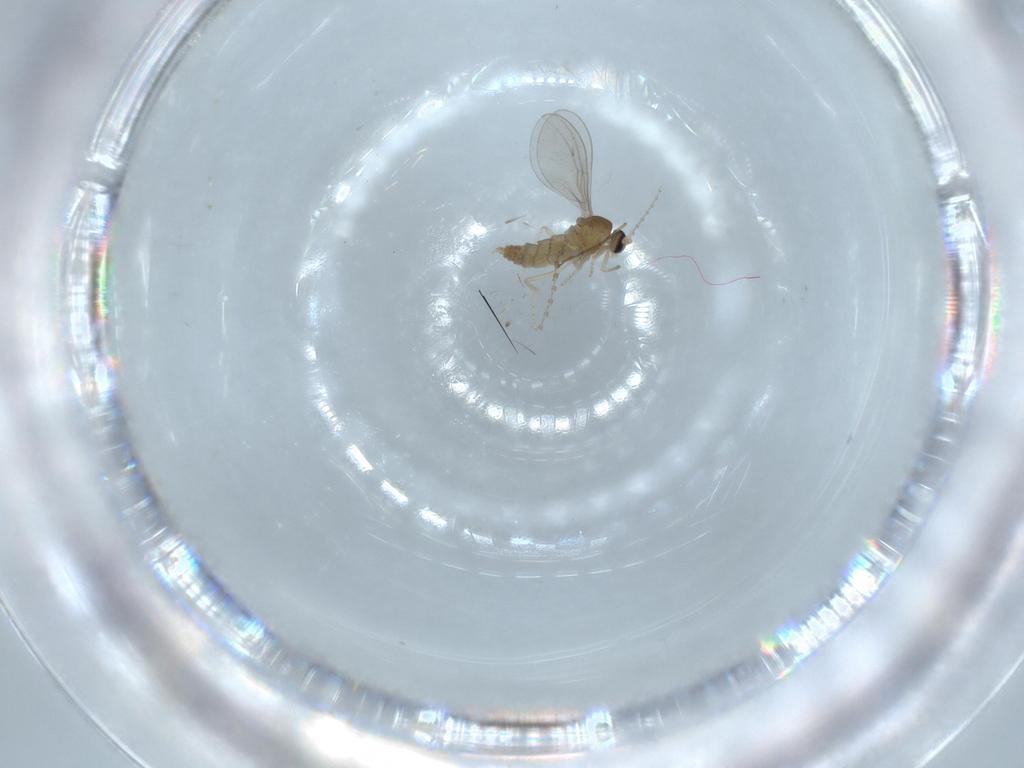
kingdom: Animalia
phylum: Arthropoda
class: Insecta
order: Diptera
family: Cecidomyiidae
